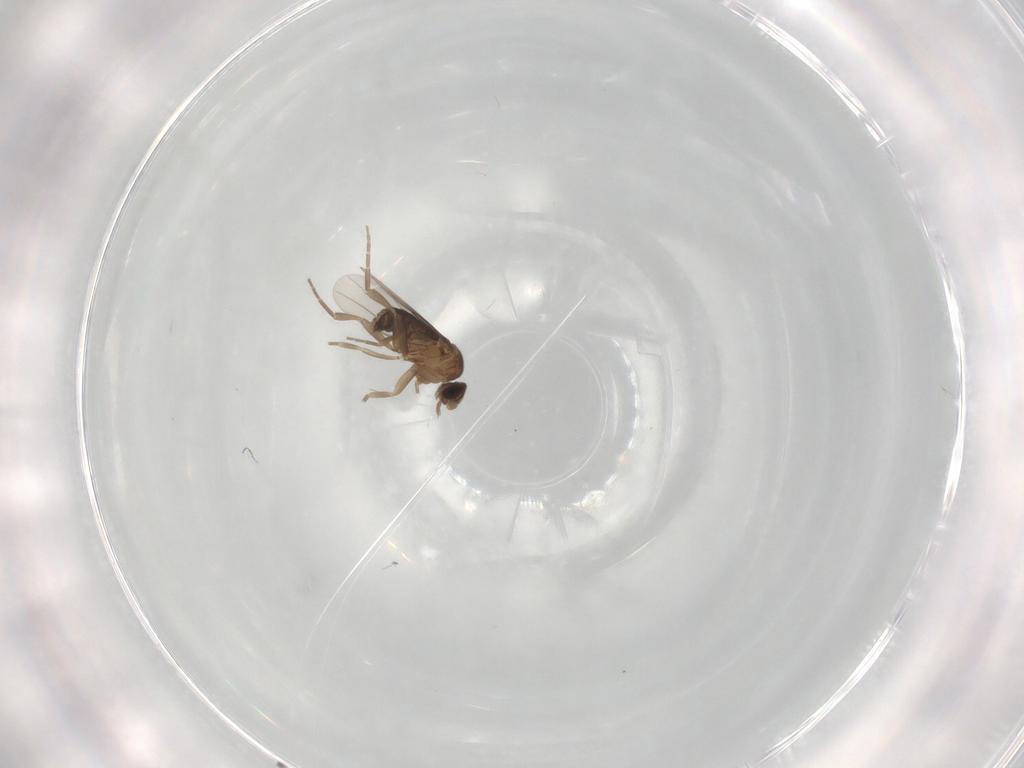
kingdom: Animalia
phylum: Arthropoda
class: Insecta
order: Diptera
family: Phoridae
